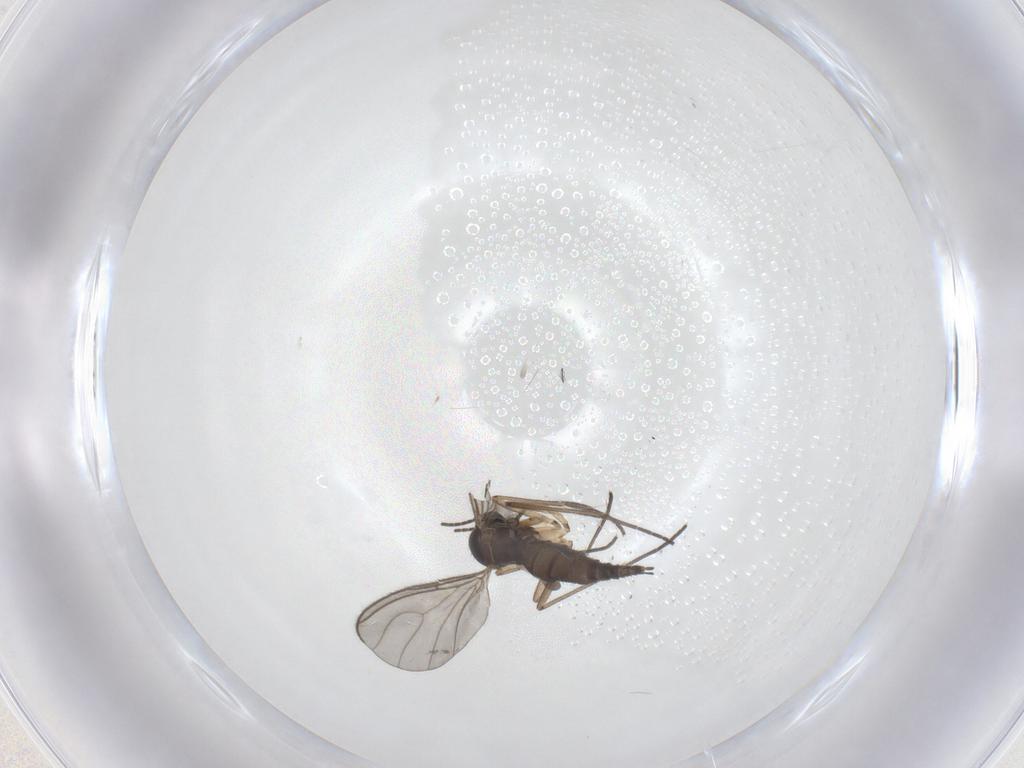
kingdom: Animalia
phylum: Arthropoda
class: Insecta
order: Diptera
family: Sciaridae
